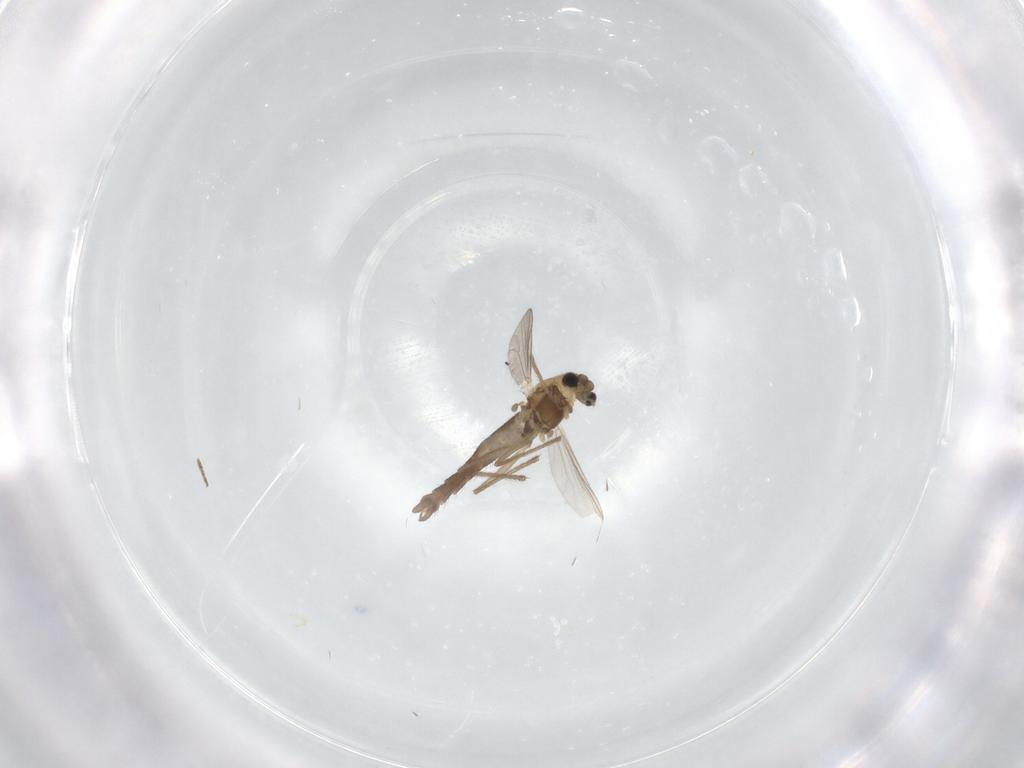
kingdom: Animalia
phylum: Arthropoda
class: Insecta
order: Diptera
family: Chironomidae
